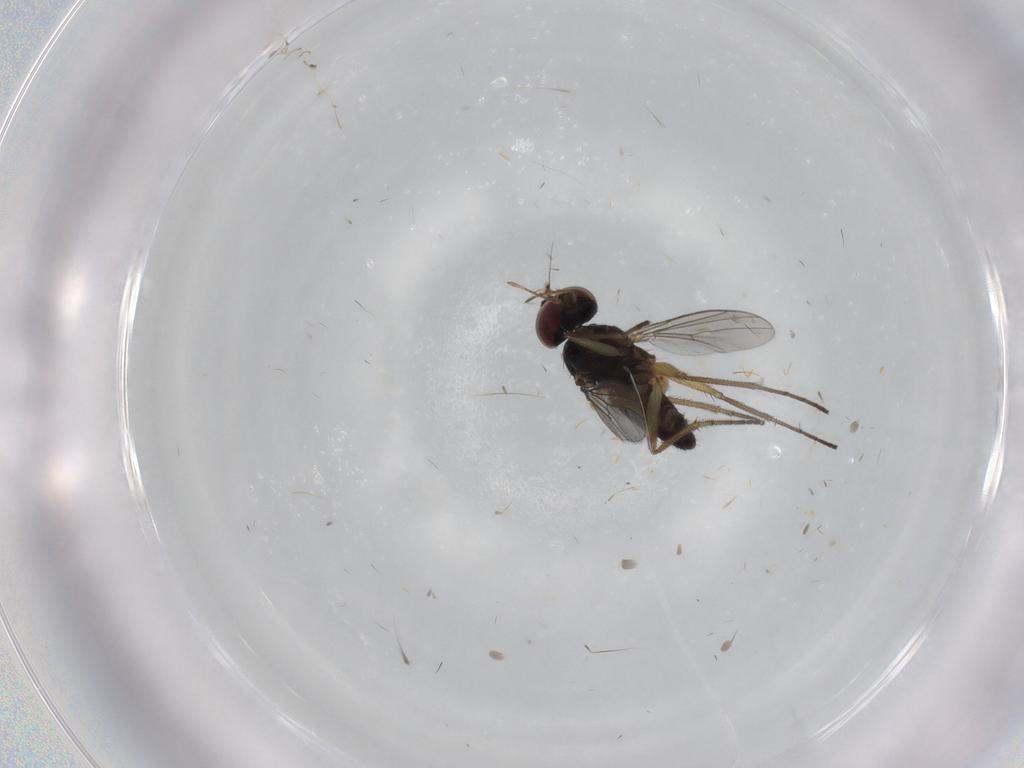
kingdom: Animalia
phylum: Arthropoda
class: Insecta
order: Diptera
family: Dolichopodidae
